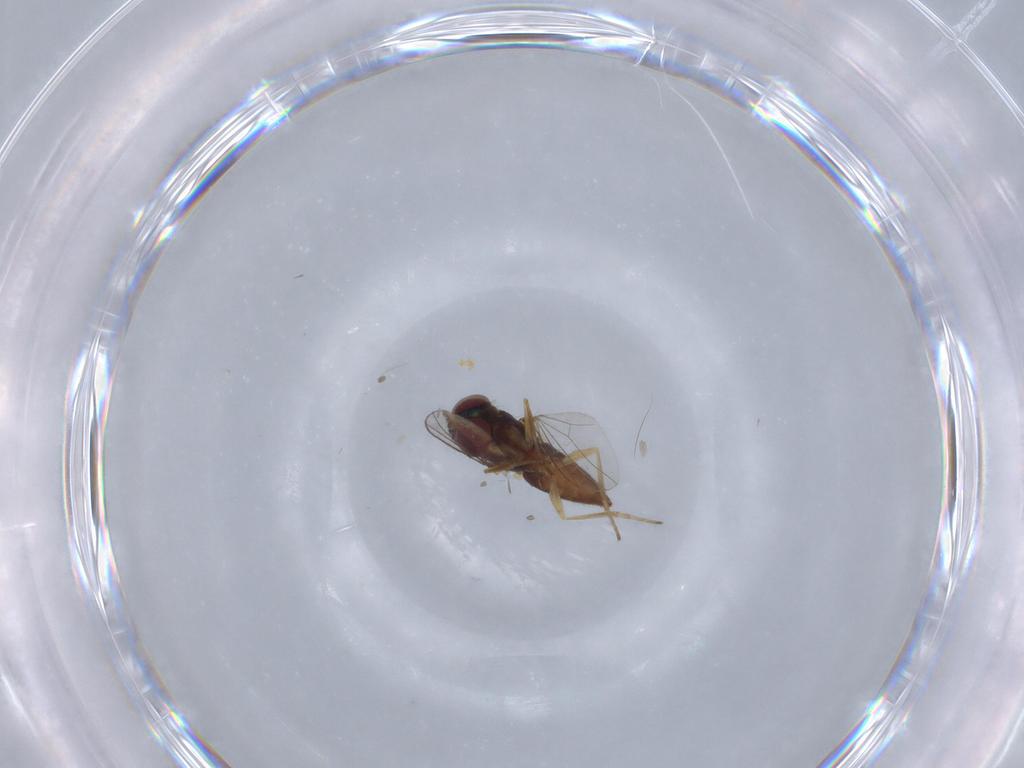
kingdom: Animalia
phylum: Arthropoda
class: Insecta
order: Diptera
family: Dolichopodidae
